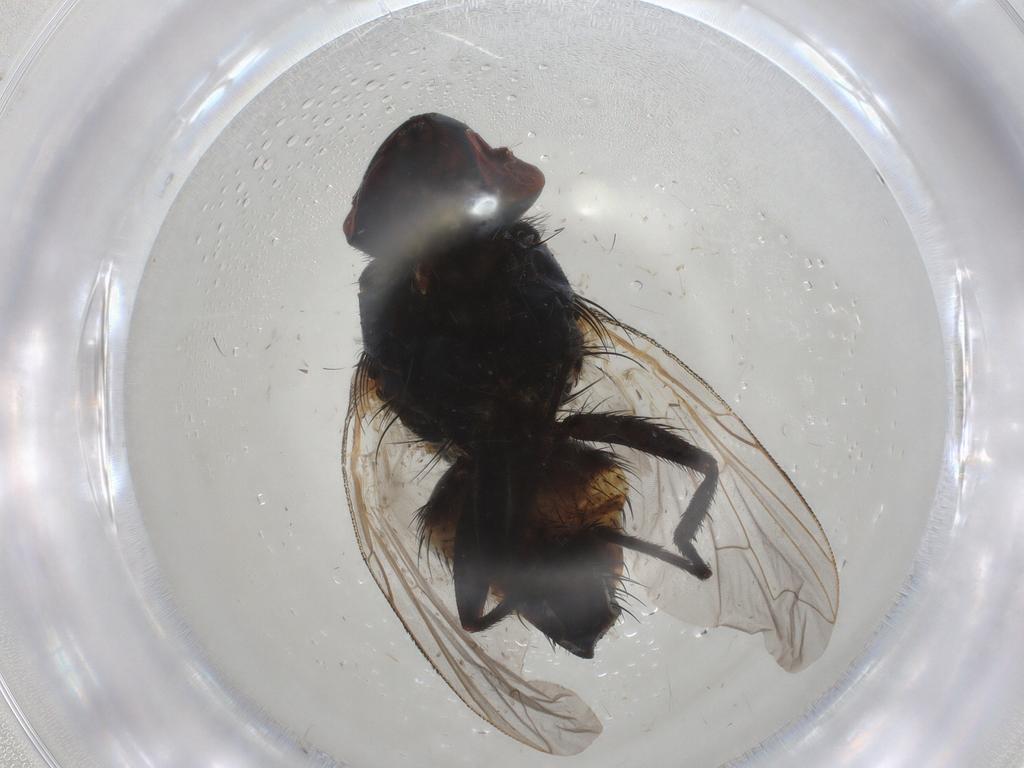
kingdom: Animalia
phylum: Arthropoda
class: Insecta
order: Diptera
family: Sarcophagidae
